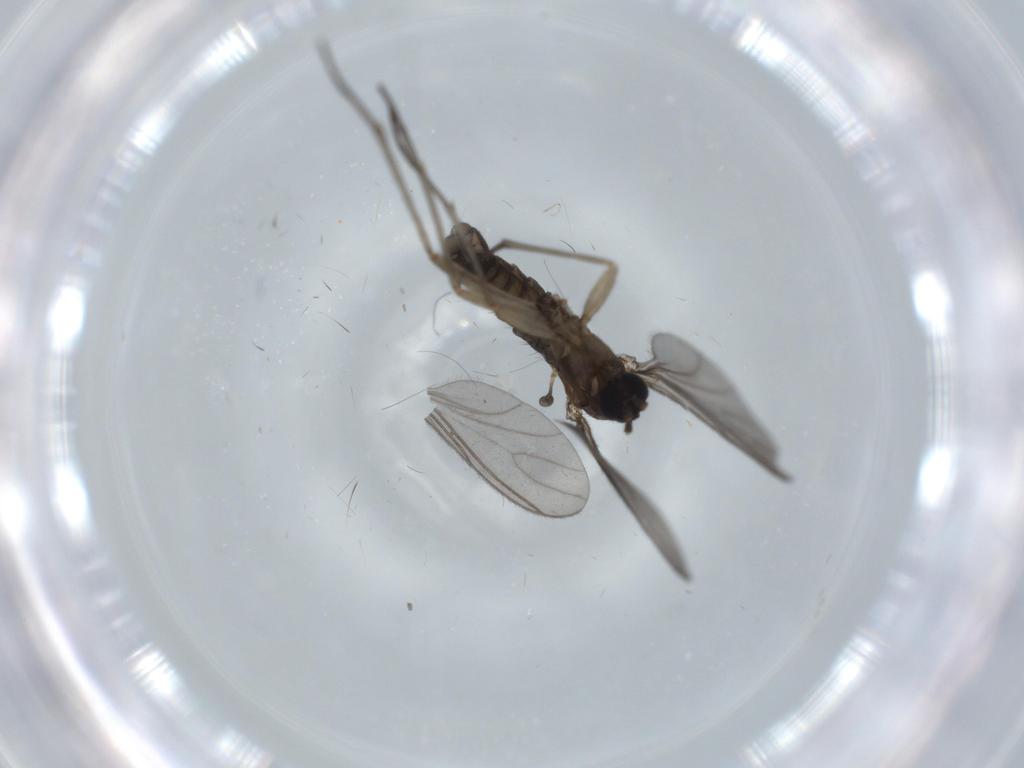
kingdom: Animalia
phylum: Arthropoda
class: Insecta
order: Diptera
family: Sciaridae
